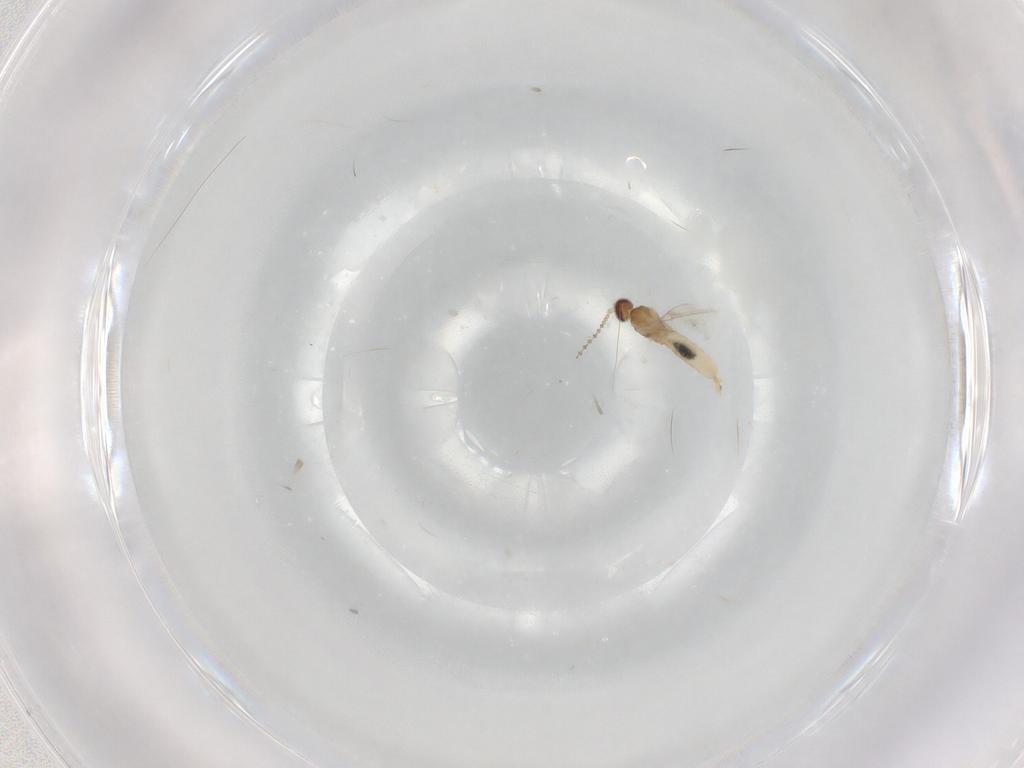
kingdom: Animalia
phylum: Arthropoda
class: Insecta
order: Diptera
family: Cecidomyiidae
